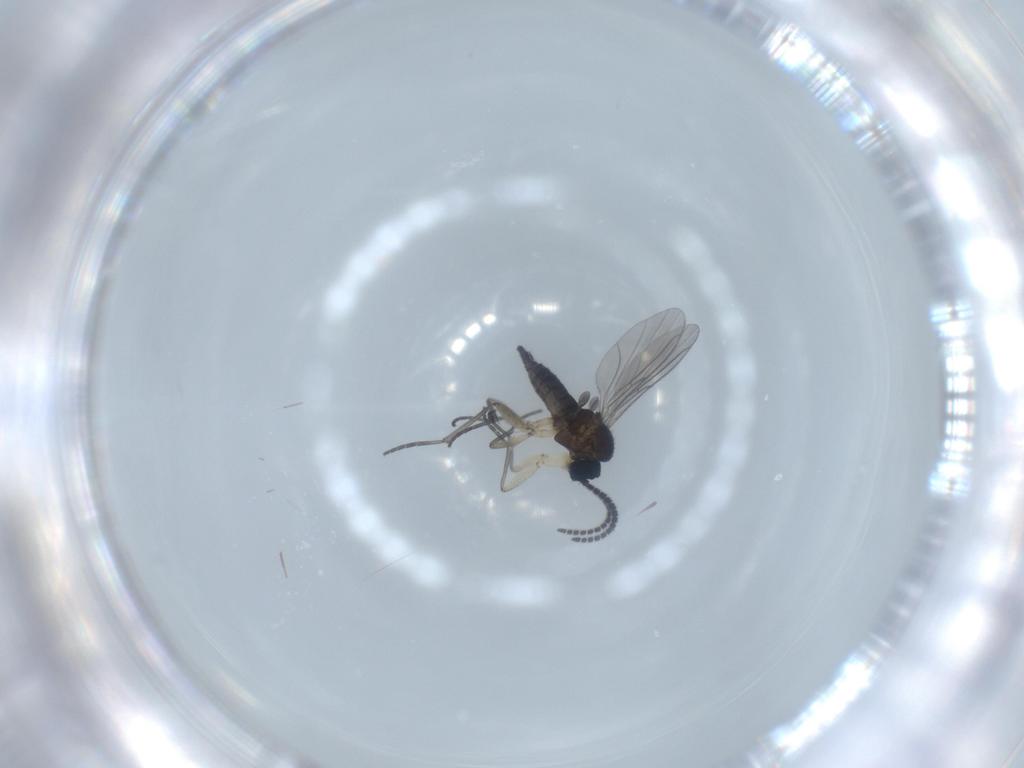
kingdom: Animalia
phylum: Arthropoda
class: Insecta
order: Diptera
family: Sciaridae
